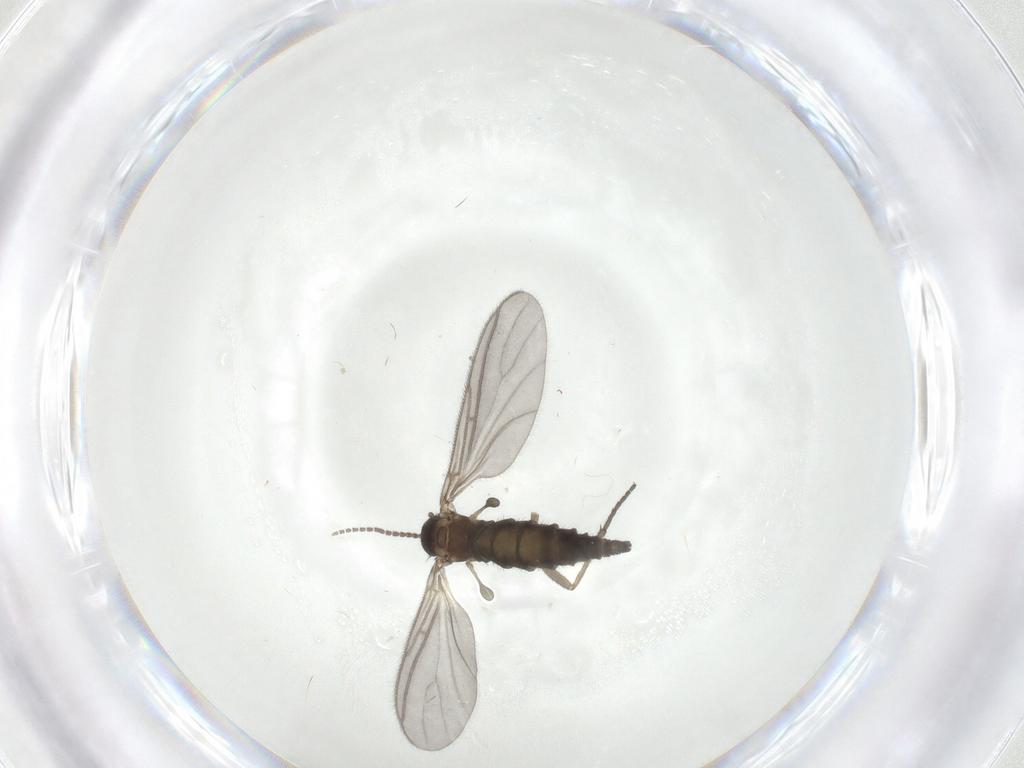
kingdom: Animalia
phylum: Arthropoda
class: Insecta
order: Diptera
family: Sciaridae
